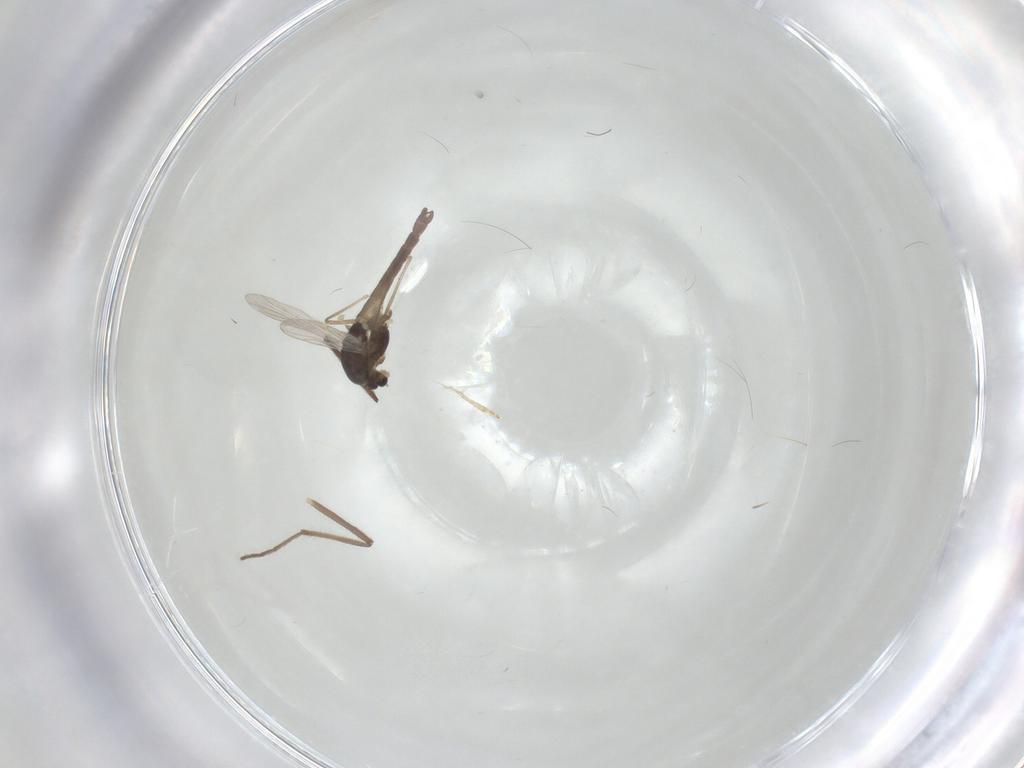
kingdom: Animalia
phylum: Arthropoda
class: Insecta
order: Diptera
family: Chironomidae
